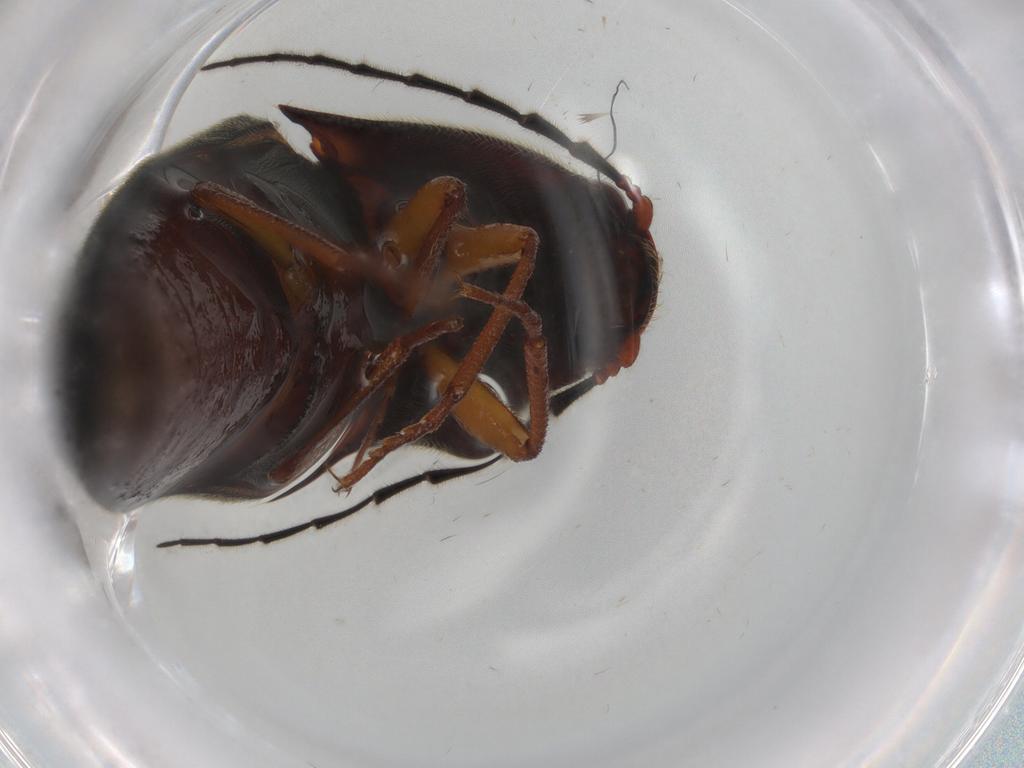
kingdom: Animalia
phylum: Arthropoda
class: Insecta
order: Coleoptera
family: Elateridae
